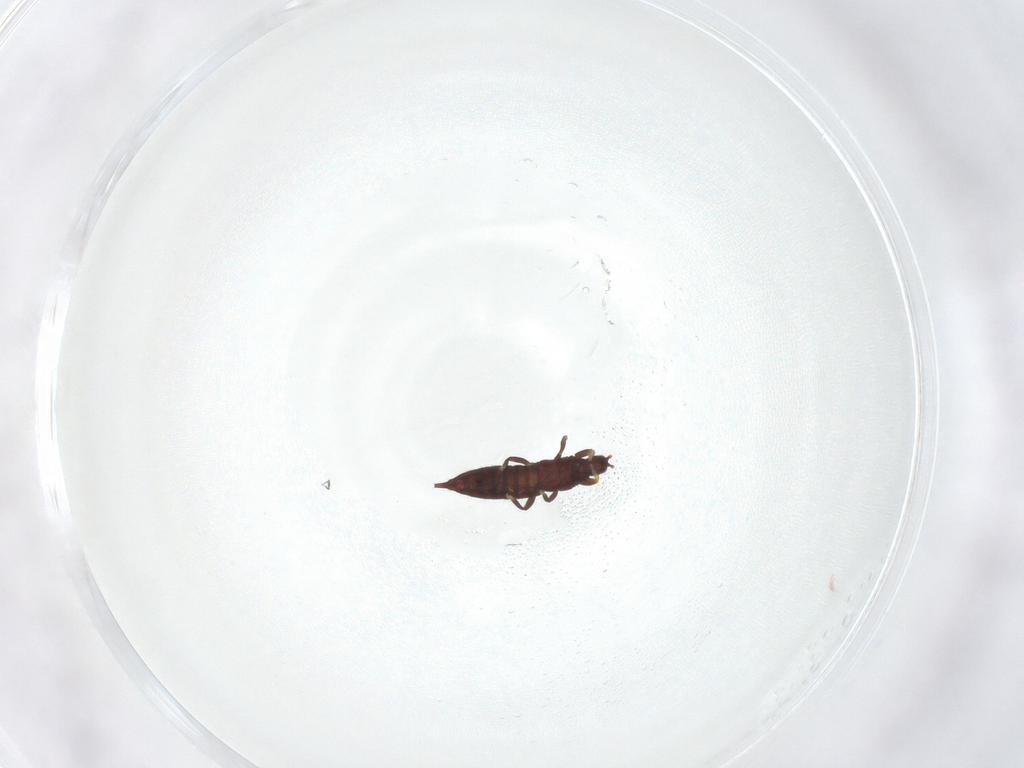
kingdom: Animalia
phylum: Arthropoda
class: Insecta
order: Thysanoptera
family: Phlaeothripidae
